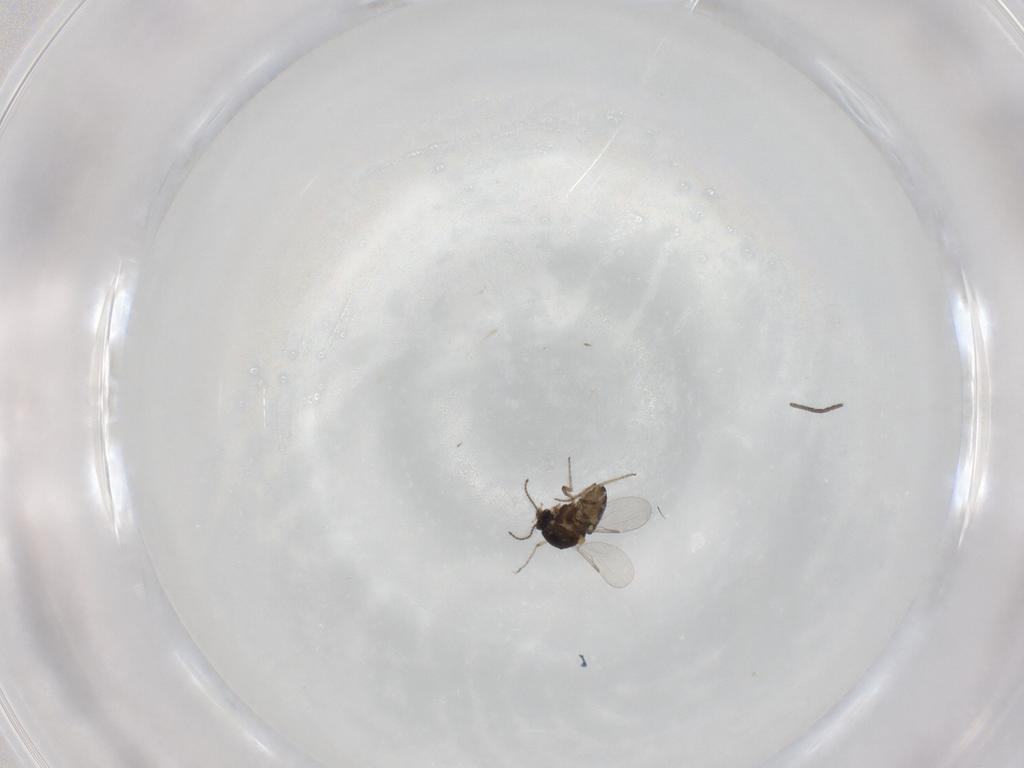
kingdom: Animalia
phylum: Arthropoda
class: Insecta
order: Diptera
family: Ceratopogonidae
